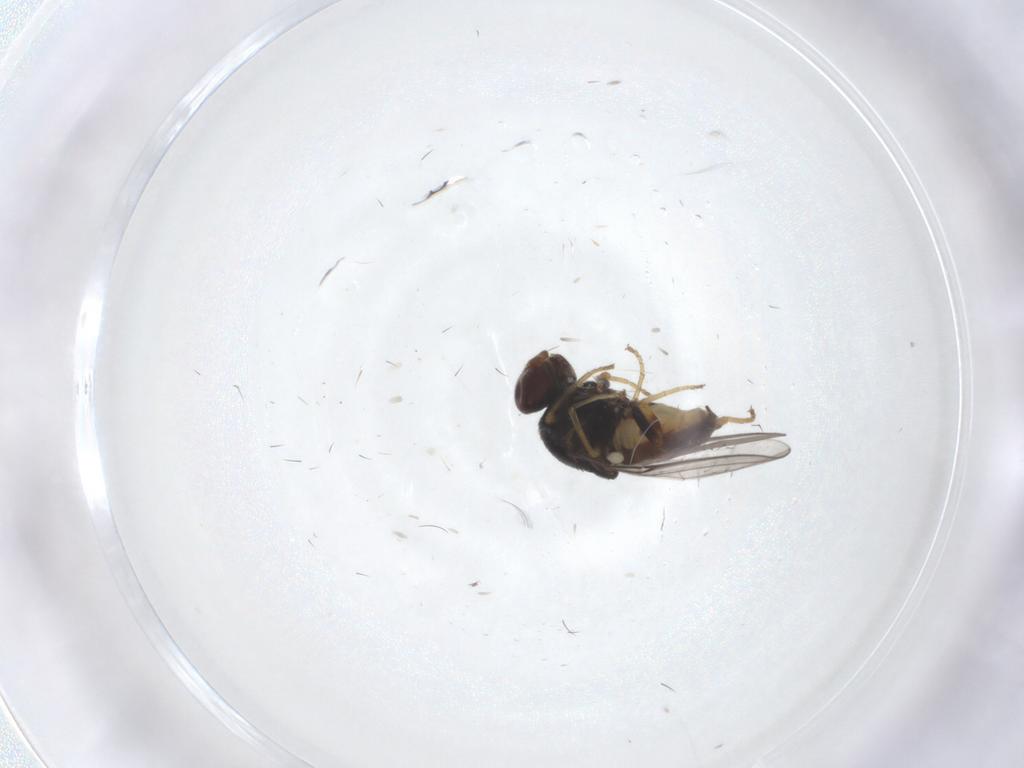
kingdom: Animalia
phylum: Arthropoda
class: Insecta
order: Diptera
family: Chloropidae
